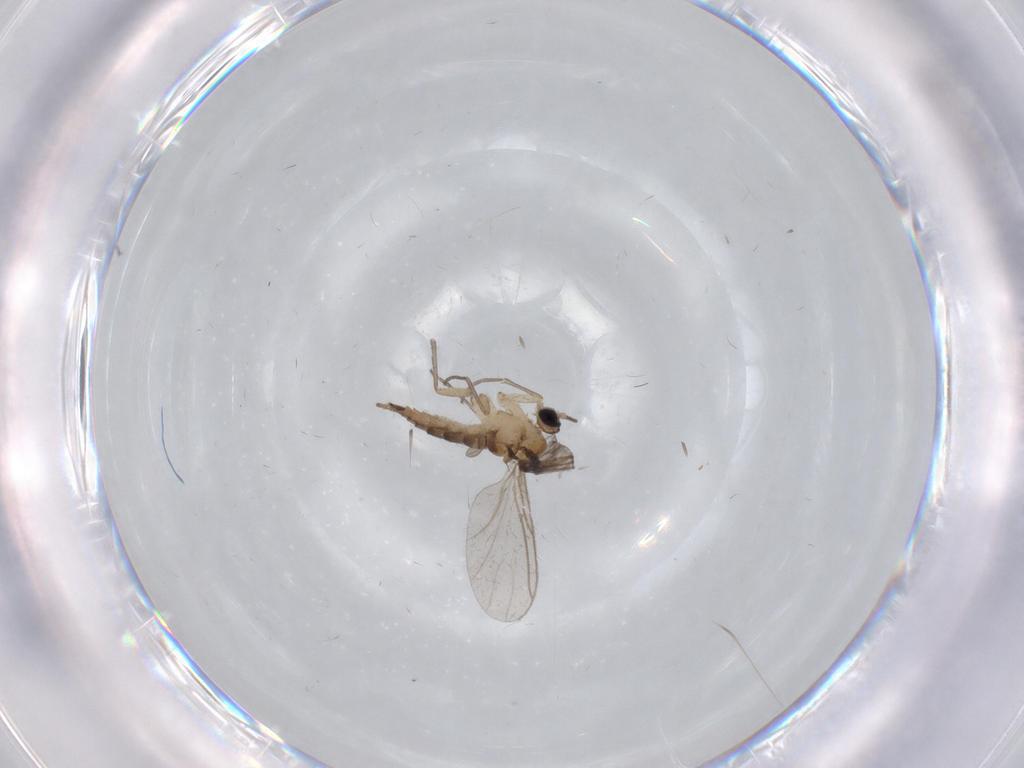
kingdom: Animalia
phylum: Arthropoda
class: Insecta
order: Diptera
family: Sciaridae
